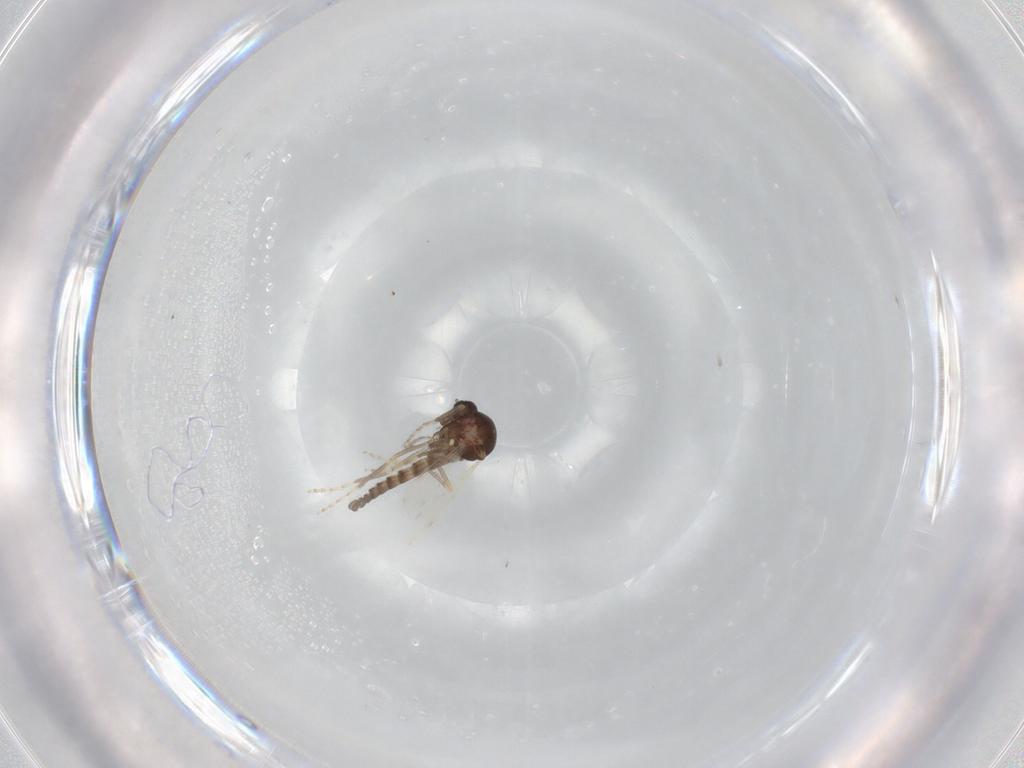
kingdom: Animalia
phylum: Arthropoda
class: Insecta
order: Diptera
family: Ceratopogonidae
